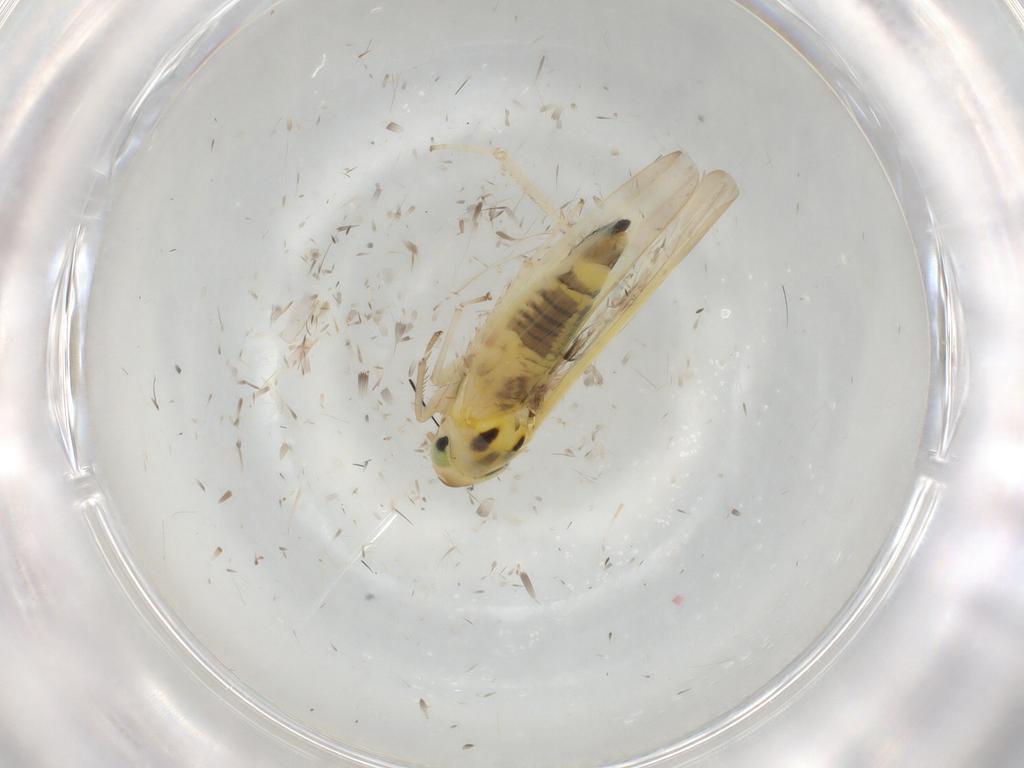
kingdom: Animalia
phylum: Arthropoda
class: Insecta
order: Hemiptera
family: Cicadellidae
